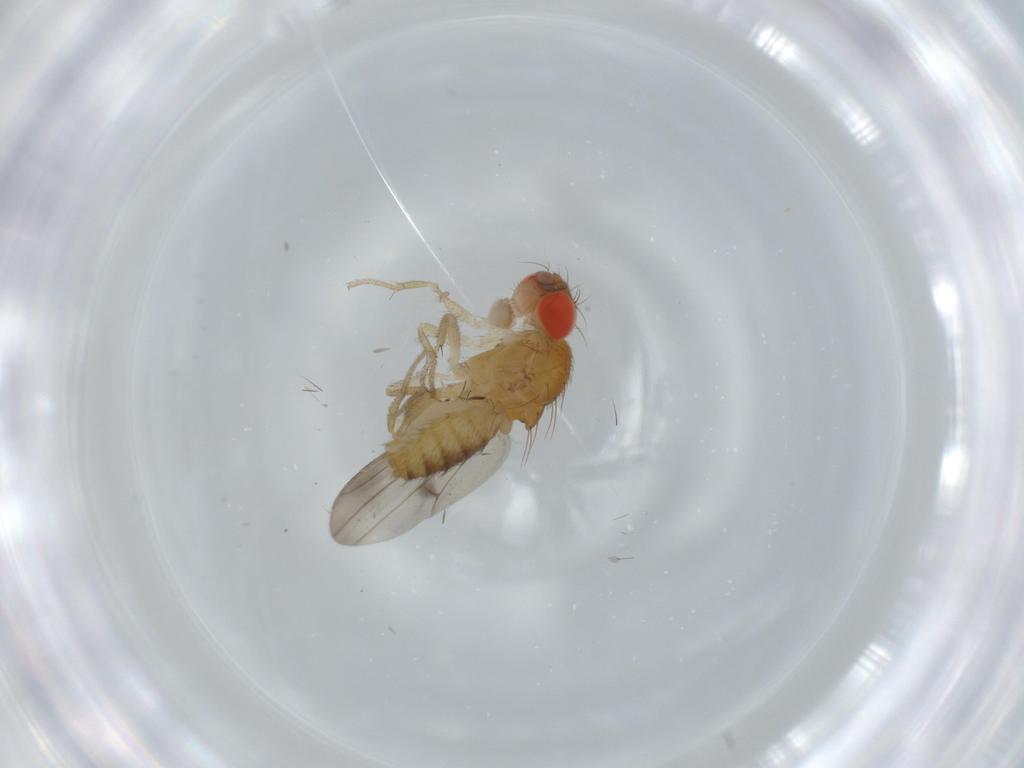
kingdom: Animalia
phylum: Arthropoda
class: Insecta
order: Diptera
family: Drosophilidae
